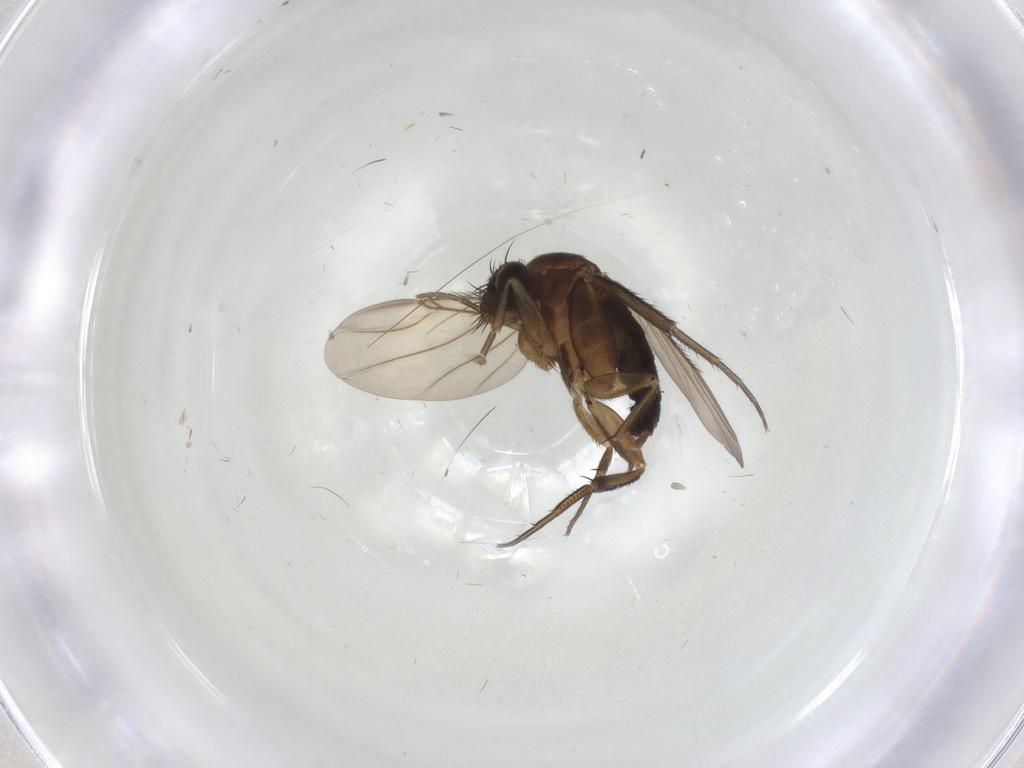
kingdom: Animalia
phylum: Arthropoda
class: Insecta
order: Diptera
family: Phoridae
